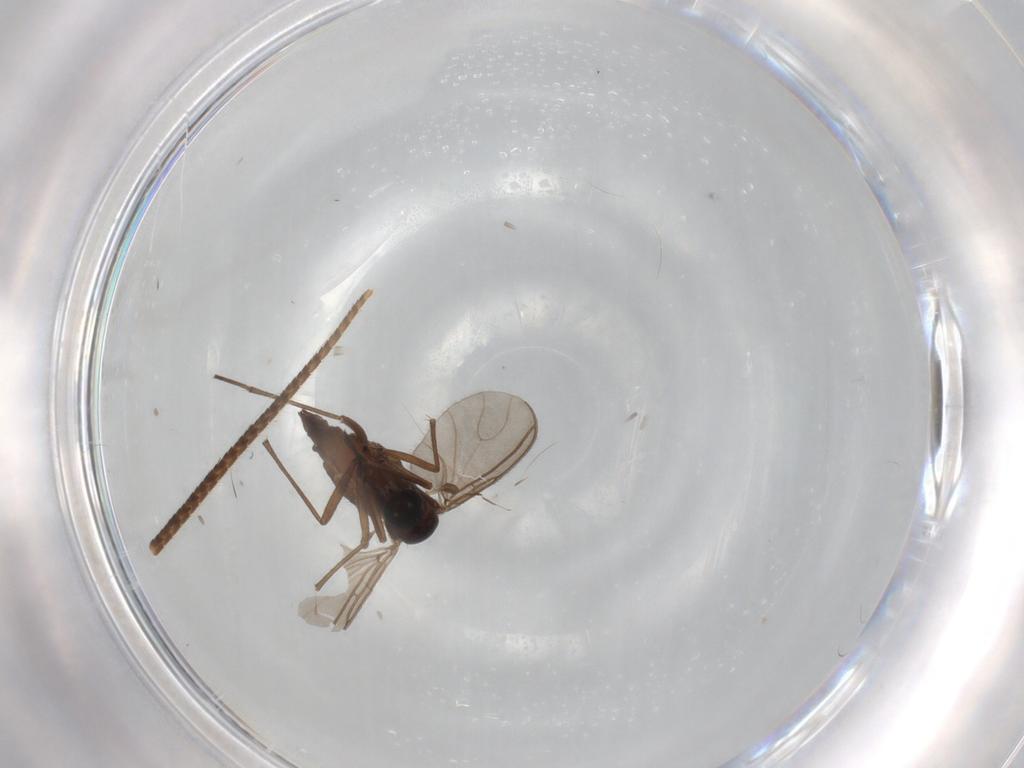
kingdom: Animalia
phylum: Arthropoda
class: Insecta
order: Diptera
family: Sciaridae
